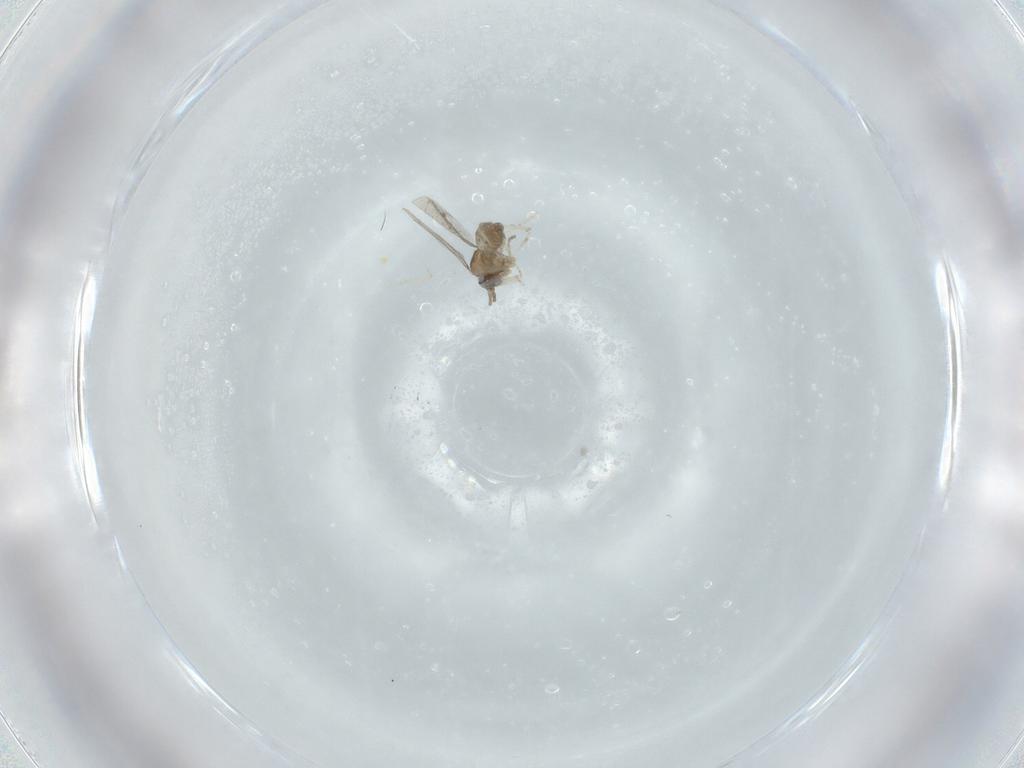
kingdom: Animalia
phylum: Arthropoda
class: Insecta
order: Diptera
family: Cecidomyiidae
